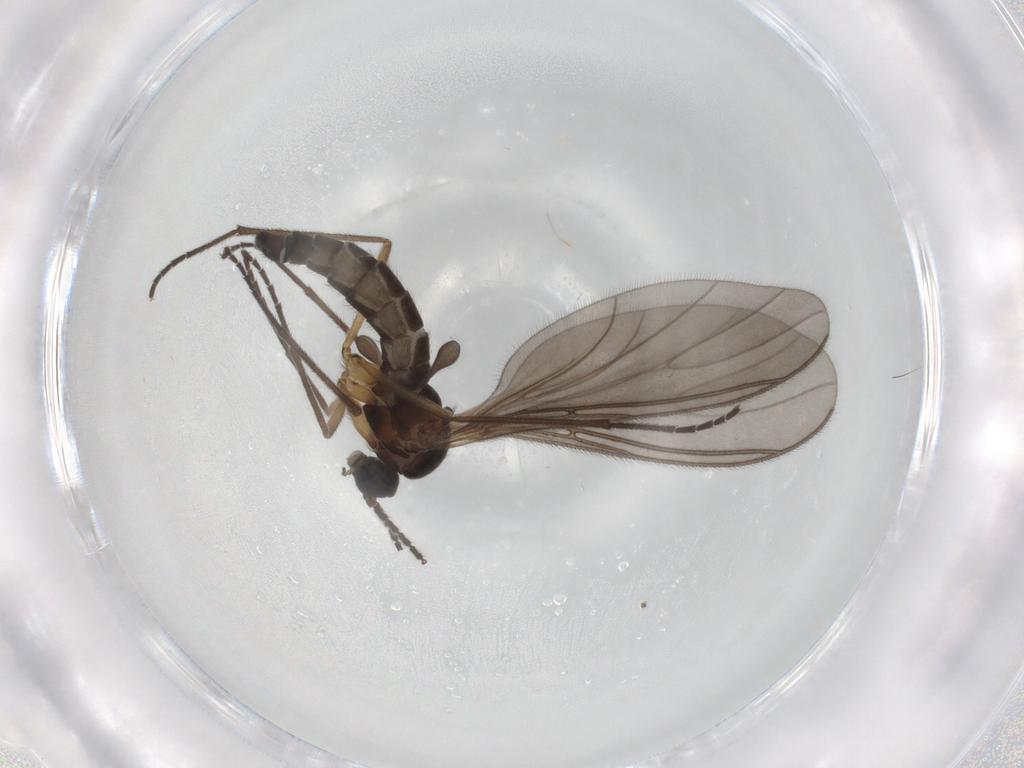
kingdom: Animalia
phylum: Arthropoda
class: Insecta
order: Diptera
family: Sciaridae
